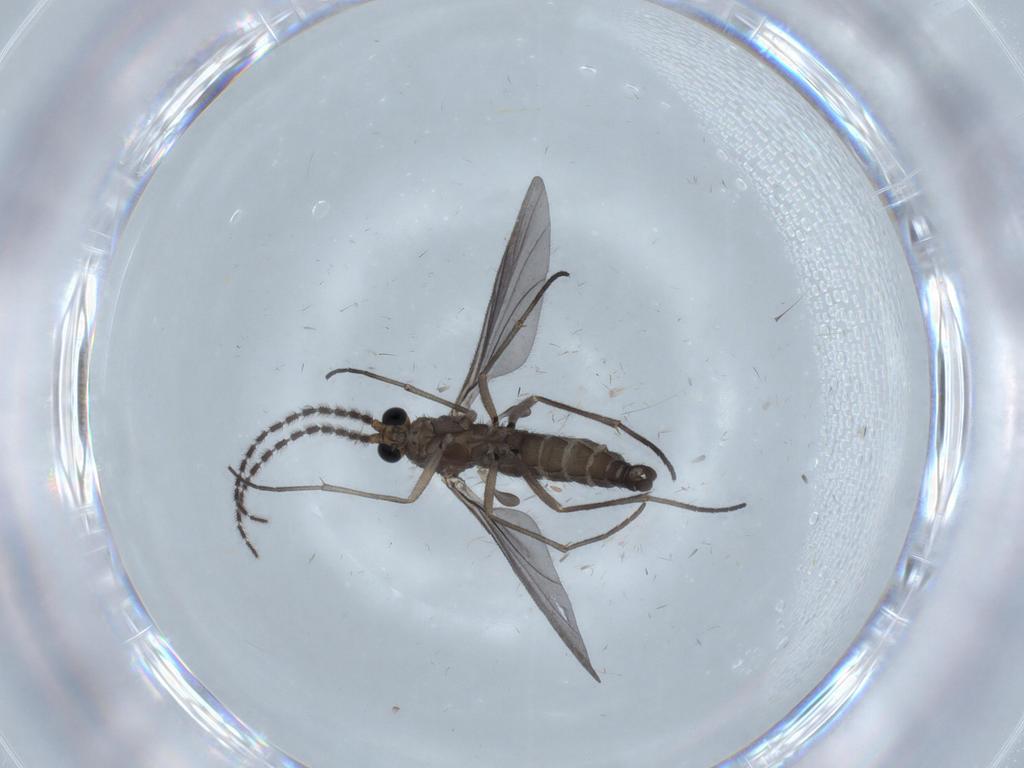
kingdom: Animalia
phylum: Arthropoda
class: Insecta
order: Diptera
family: Sciaridae
